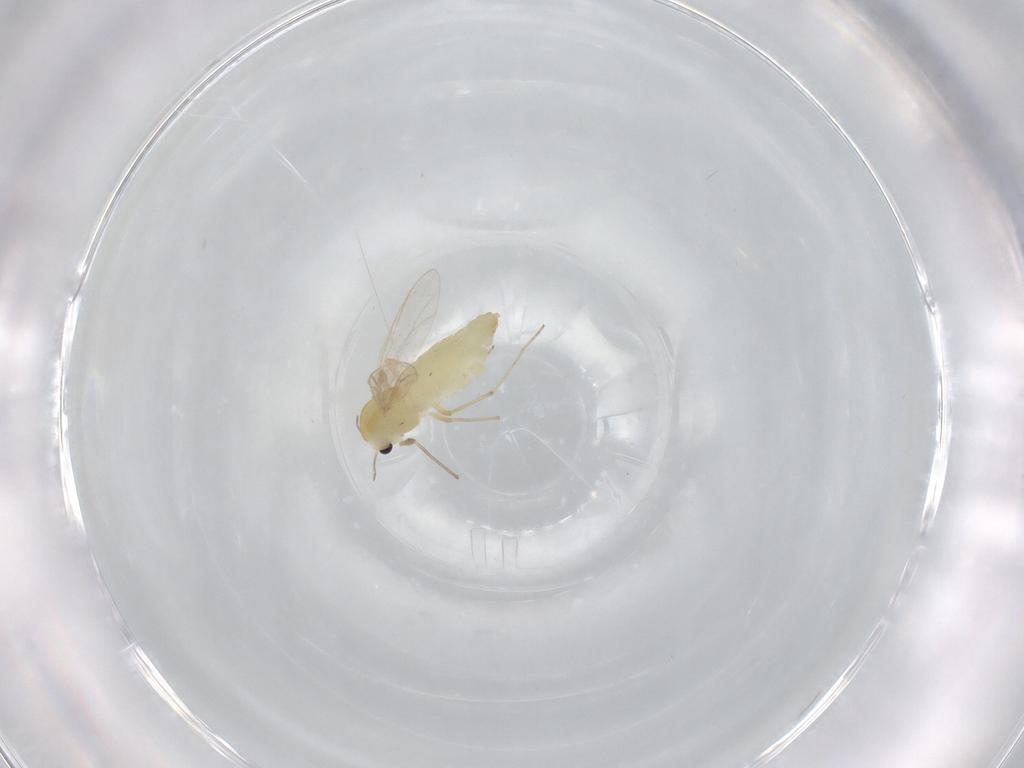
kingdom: Animalia
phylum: Arthropoda
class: Insecta
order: Diptera
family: Chironomidae
